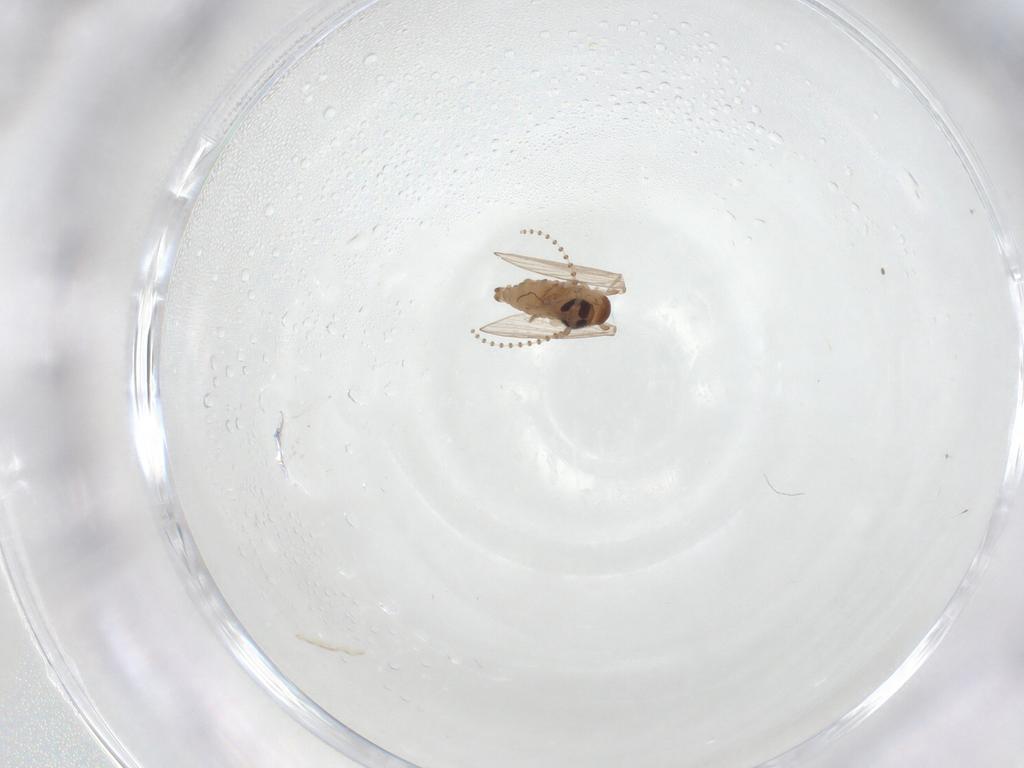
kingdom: Animalia
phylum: Arthropoda
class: Insecta
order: Diptera
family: Psychodidae
